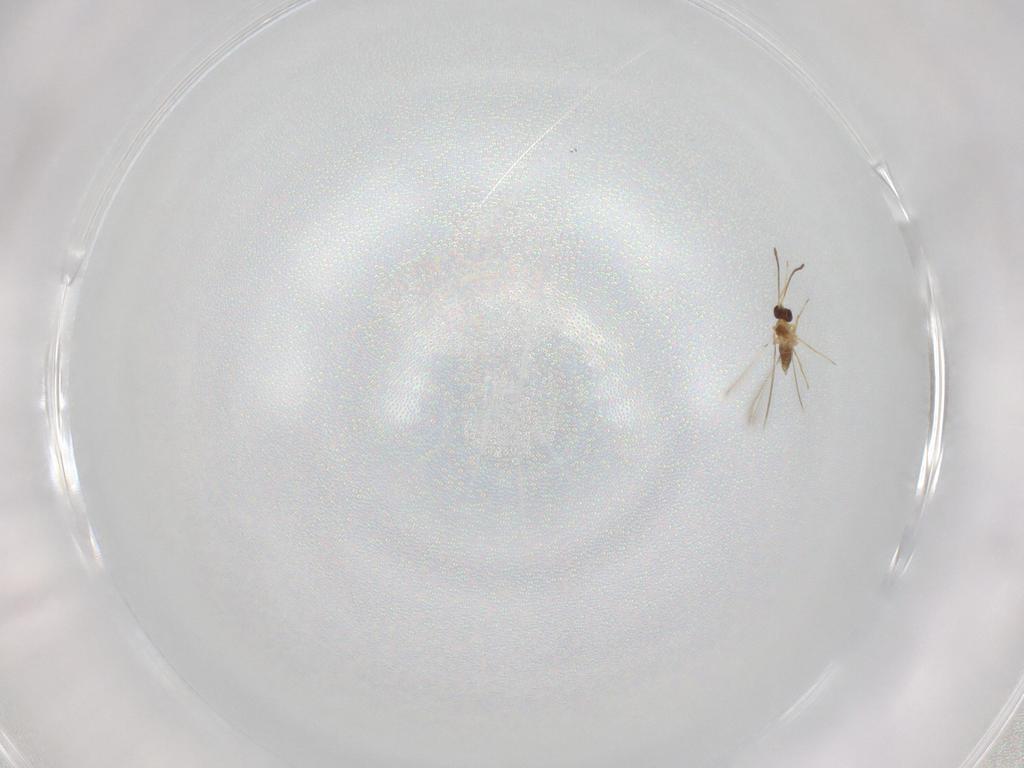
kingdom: Animalia
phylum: Arthropoda
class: Insecta
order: Hymenoptera
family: Mymaridae
